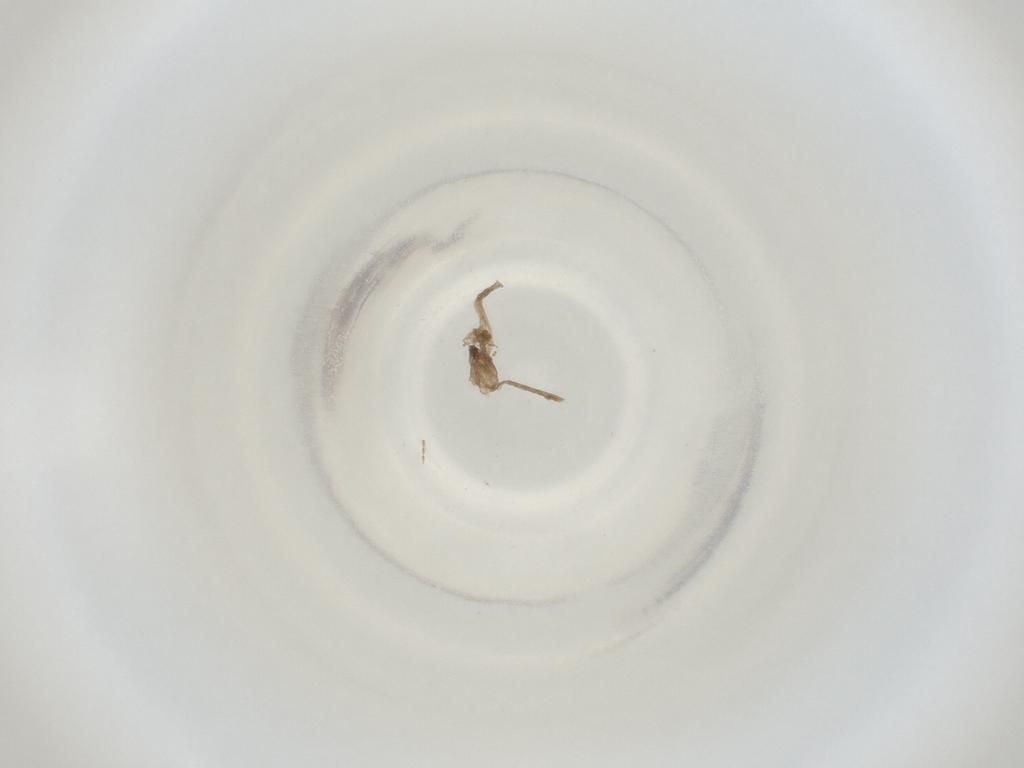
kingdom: Animalia
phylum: Arthropoda
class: Insecta
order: Diptera
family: Cecidomyiidae
